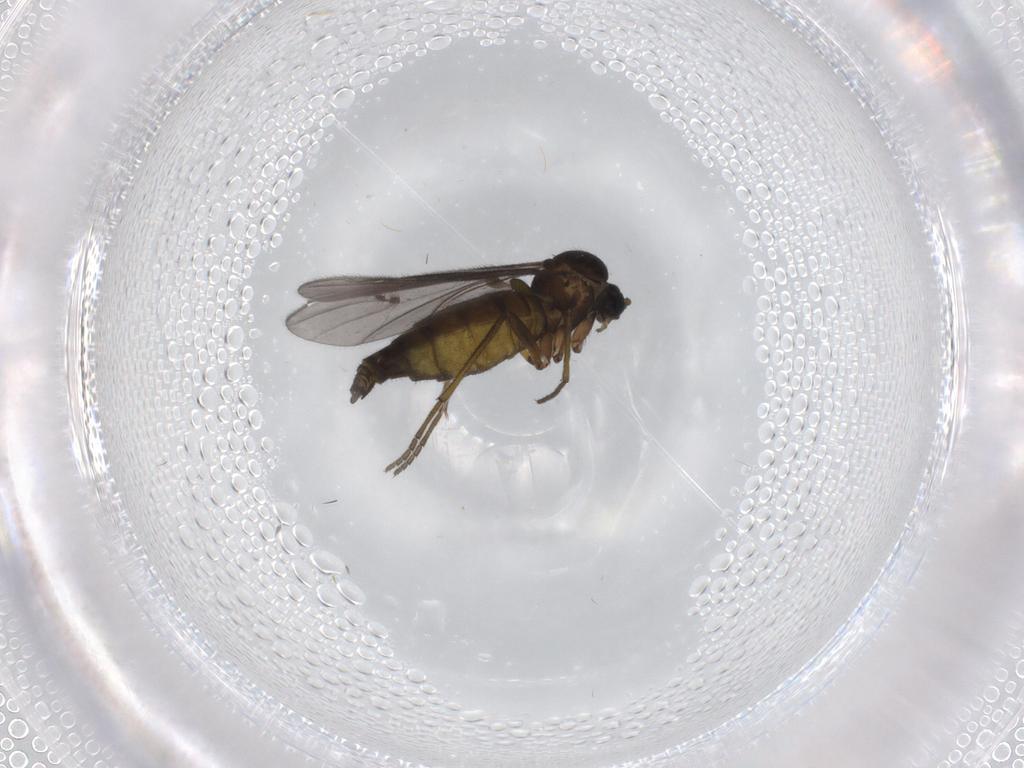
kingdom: Animalia
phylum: Arthropoda
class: Insecta
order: Diptera
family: Sciaridae
